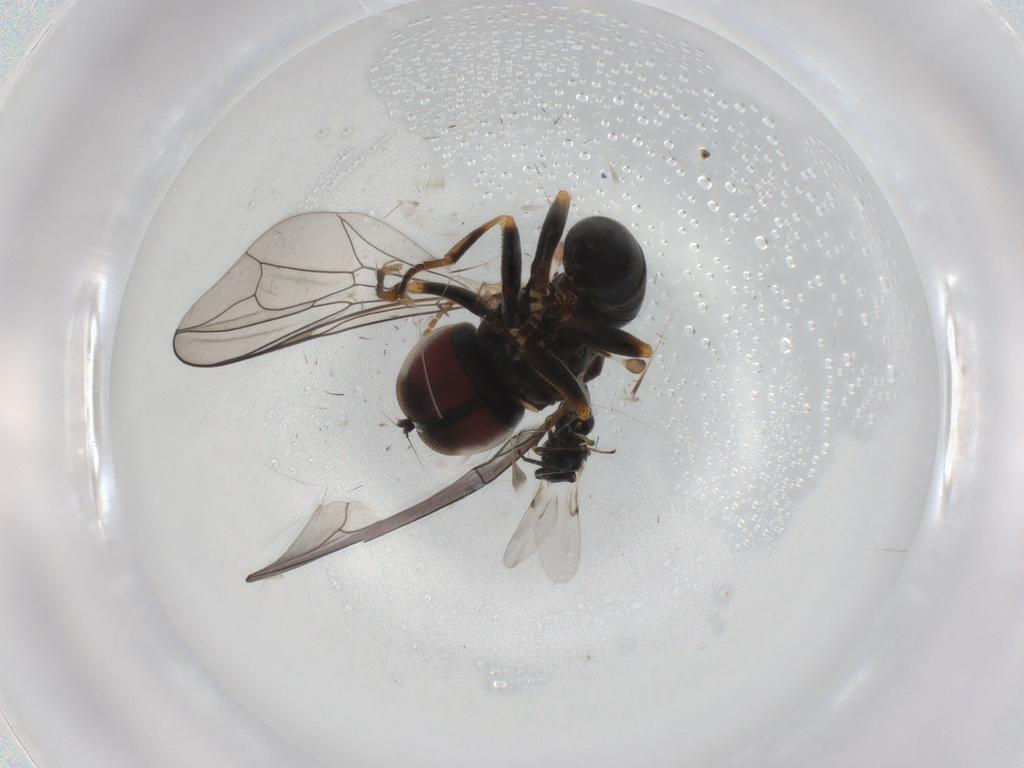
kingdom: Animalia
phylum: Arthropoda
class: Insecta
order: Diptera
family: Pipunculidae
